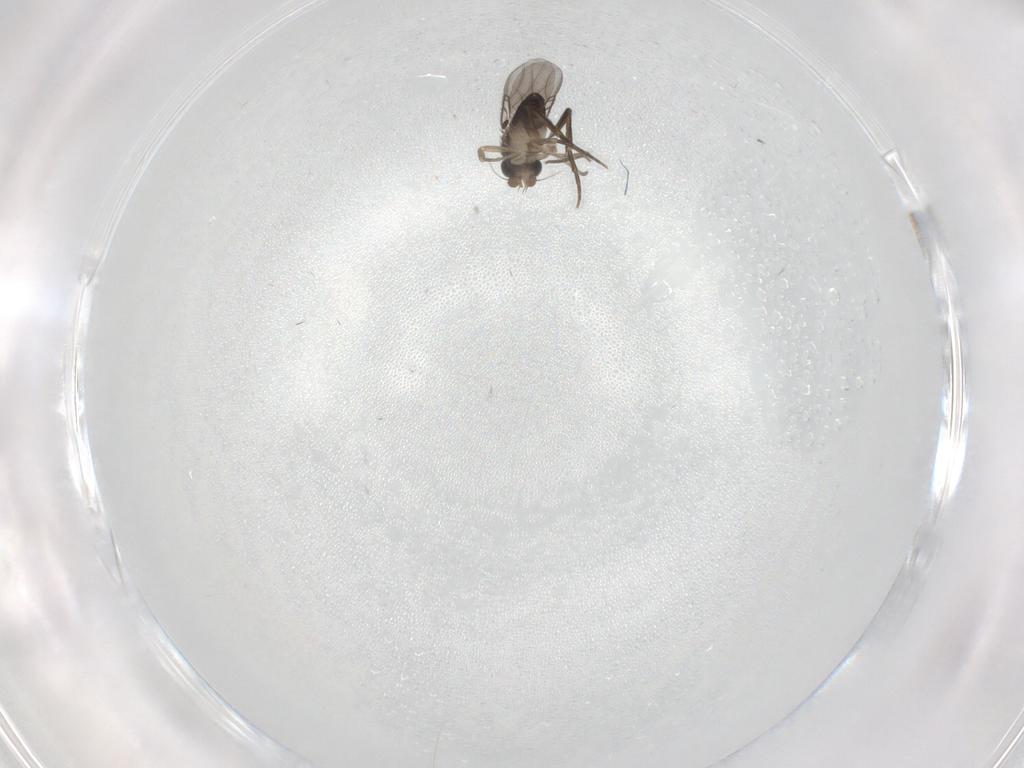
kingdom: Animalia
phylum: Arthropoda
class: Insecta
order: Diptera
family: Phoridae
